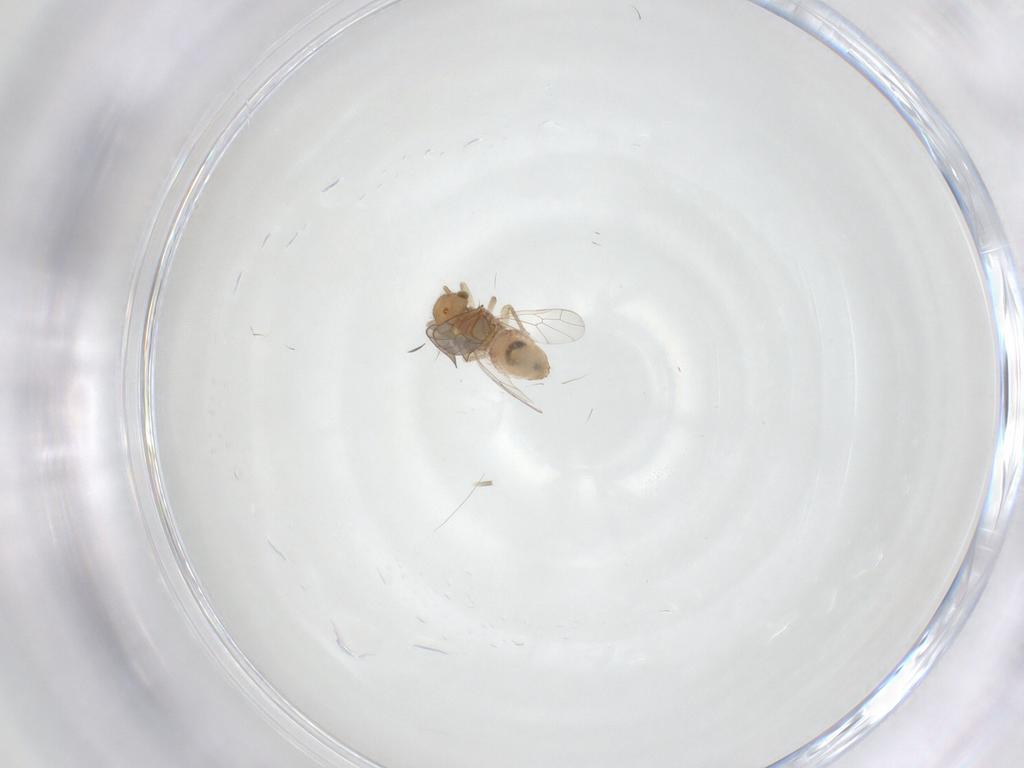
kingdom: Animalia
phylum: Arthropoda
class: Insecta
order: Psocodea
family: Ectopsocidae
